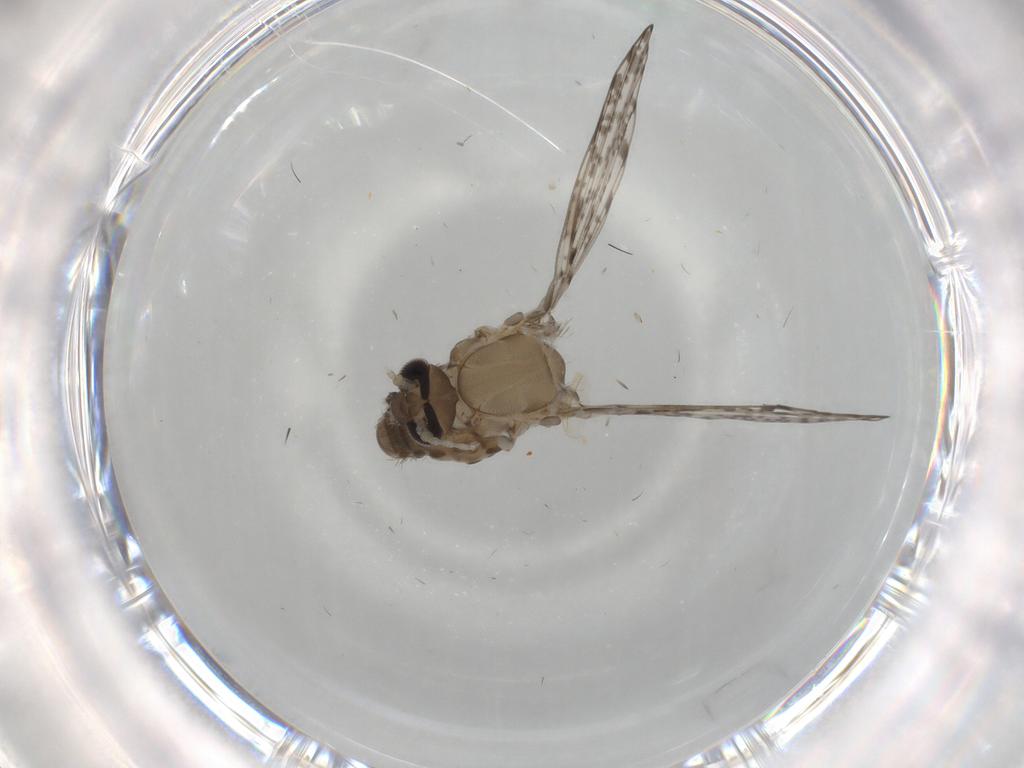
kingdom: Animalia
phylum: Arthropoda
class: Insecta
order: Diptera
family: Psychodidae
